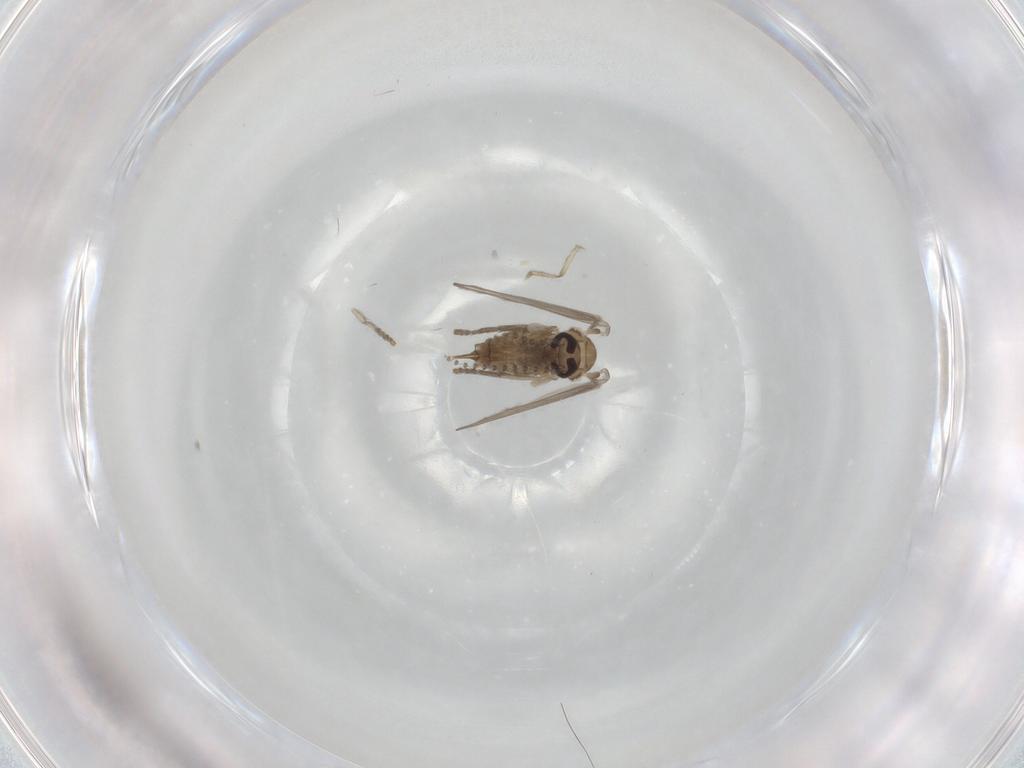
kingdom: Animalia
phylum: Arthropoda
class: Insecta
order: Diptera
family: Psychodidae
